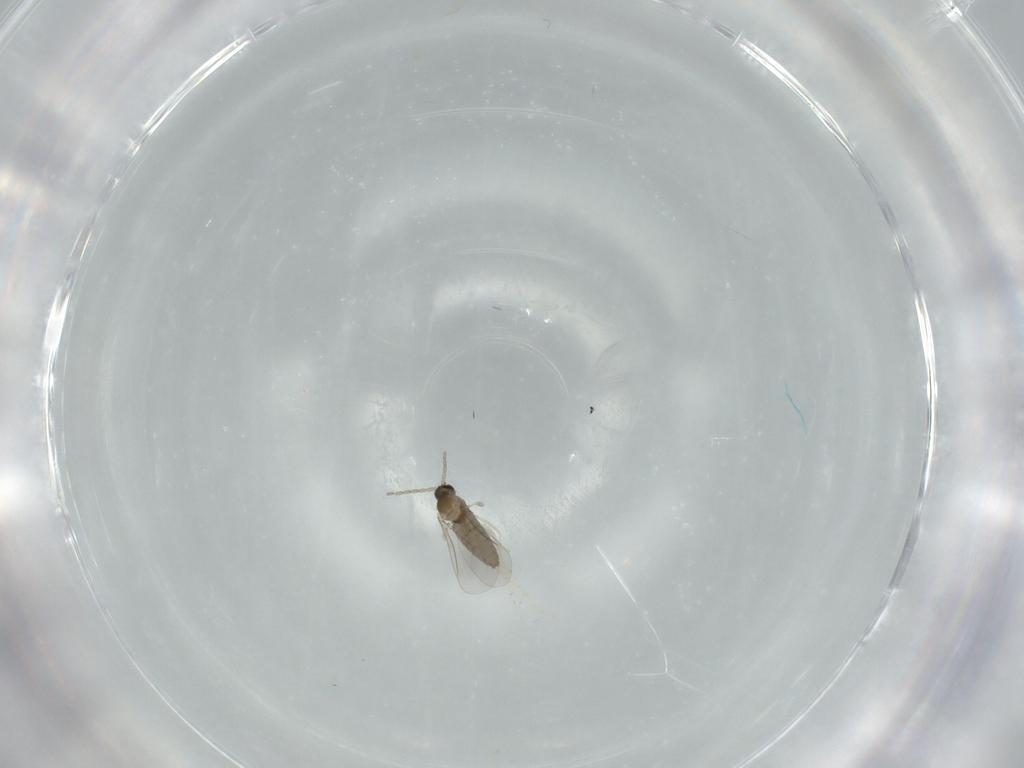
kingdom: Animalia
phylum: Arthropoda
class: Insecta
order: Diptera
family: Cecidomyiidae
